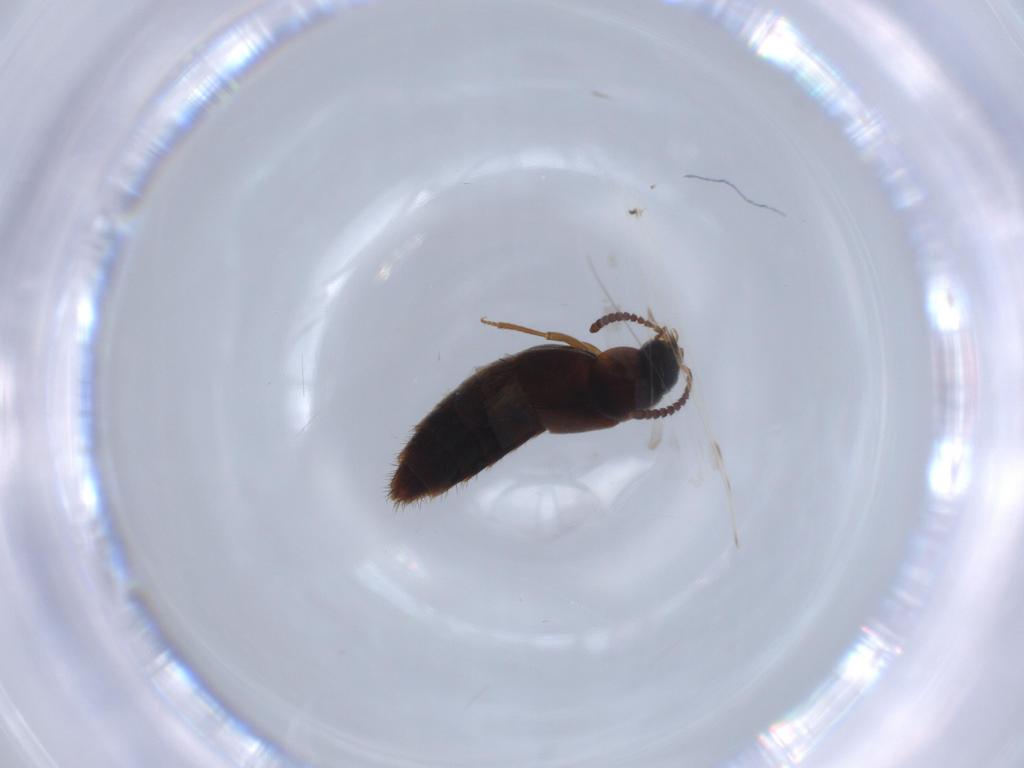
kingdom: Animalia
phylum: Arthropoda
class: Insecta
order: Coleoptera
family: Staphylinidae
